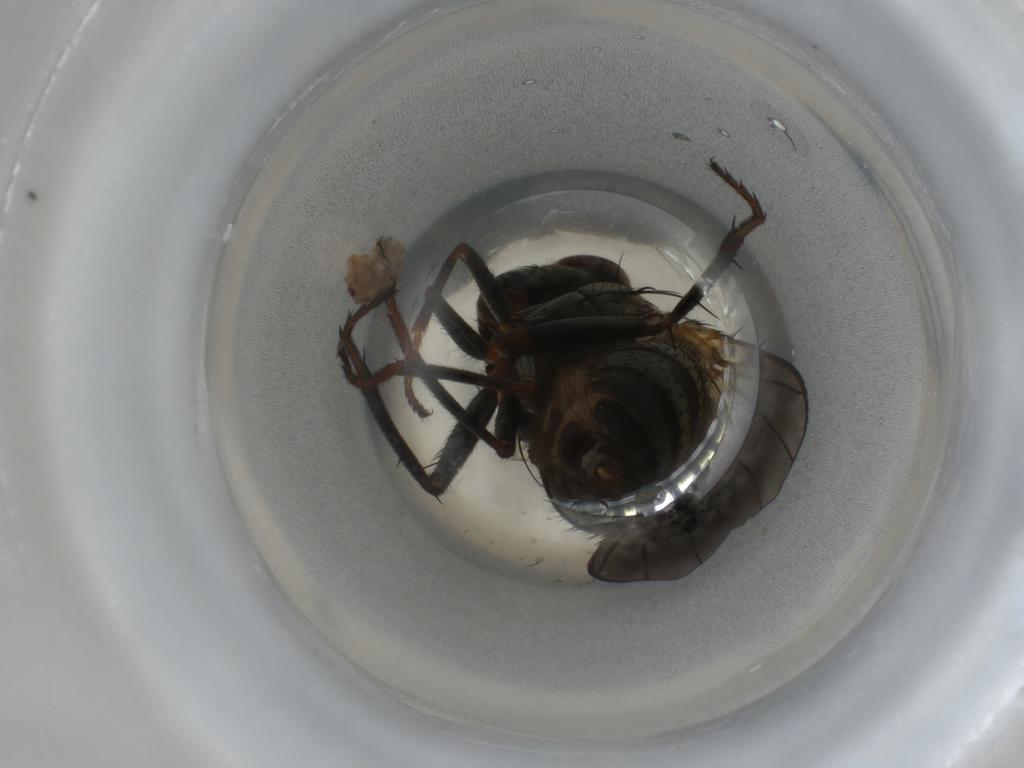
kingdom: Animalia
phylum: Arthropoda
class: Insecta
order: Diptera
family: Ephydridae
